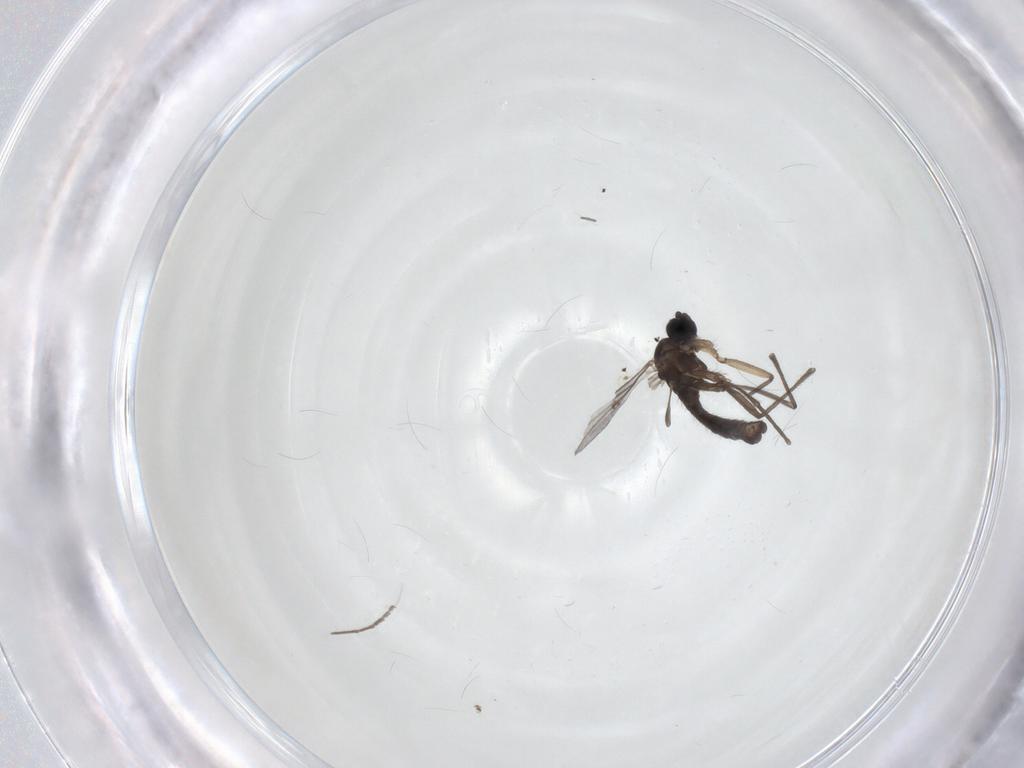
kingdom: Animalia
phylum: Arthropoda
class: Insecta
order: Diptera
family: Sciaridae
